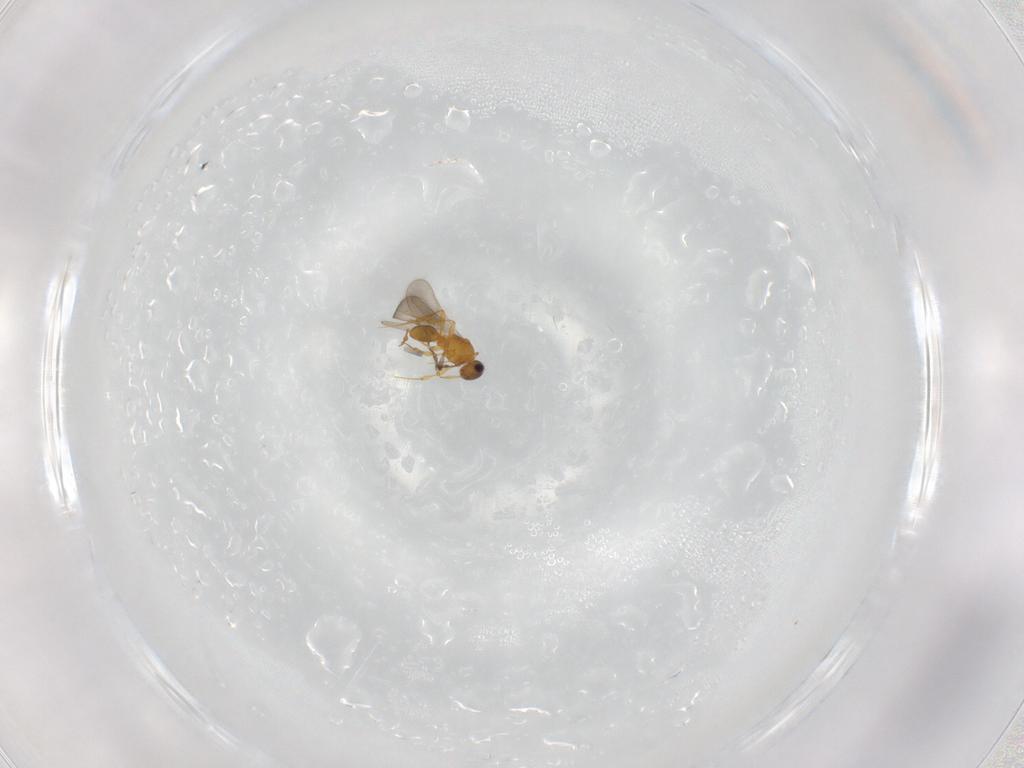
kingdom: Animalia
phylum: Arthropoda
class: Insecta
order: Hymenoptera
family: Platygastridae
